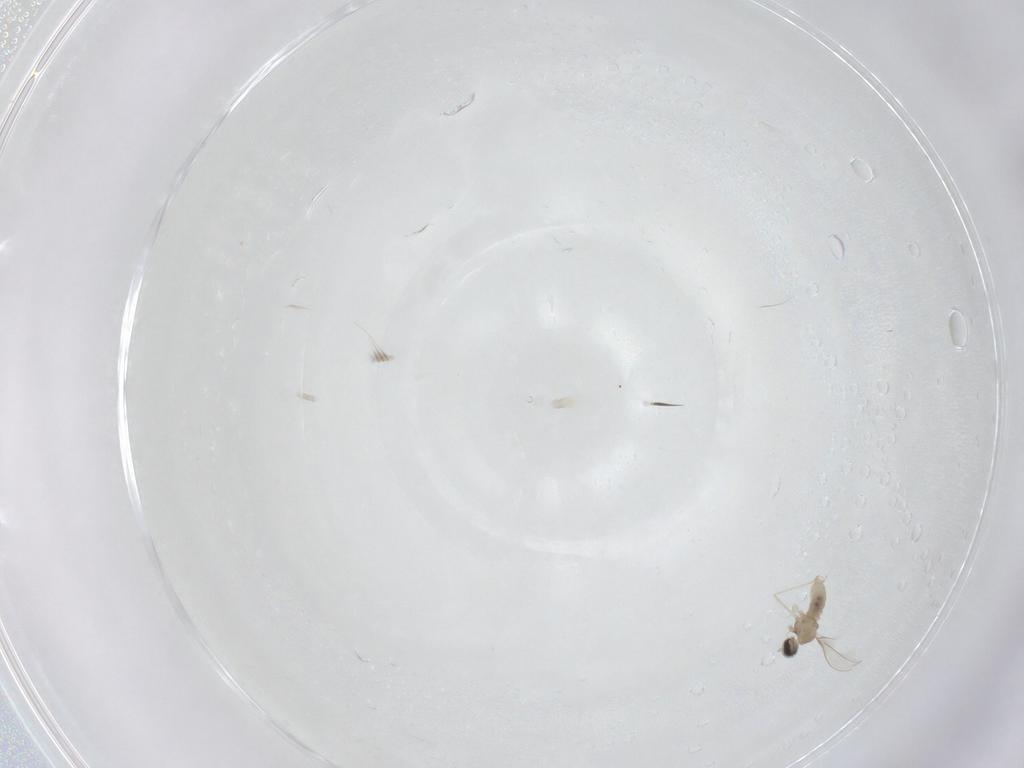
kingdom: Animalia
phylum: Arthropoda
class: Insecta
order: Diptera
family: Cecidomyiidae
